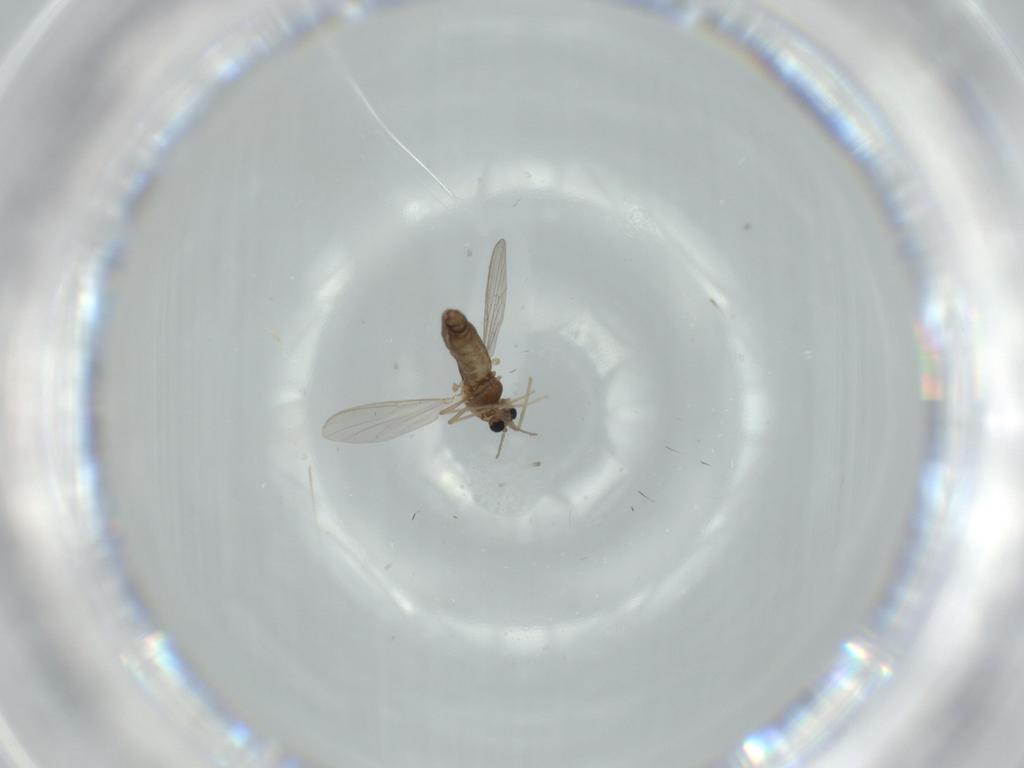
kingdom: Animalia
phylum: Arthropoda
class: Insecta
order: Diptera
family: Chironomidae
